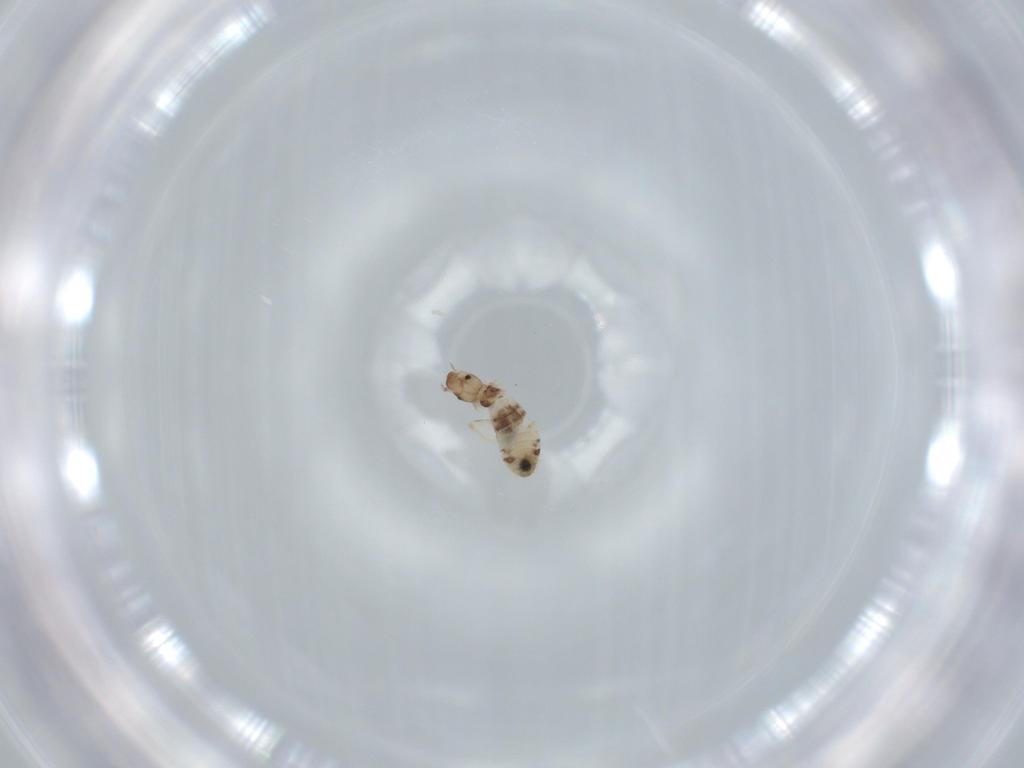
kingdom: Animalia
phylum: Arthropoda
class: Insecta
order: Psocodea
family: Liposcelididae
